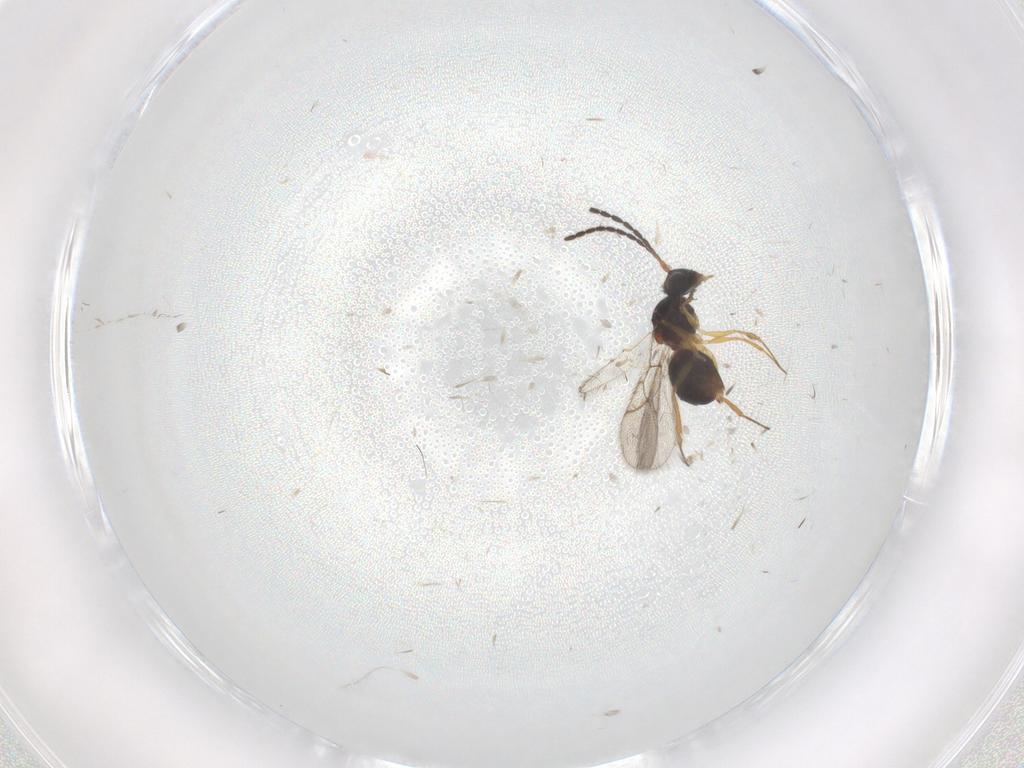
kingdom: Animalia
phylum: Arthropoda
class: Insecta
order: Hymenoptera
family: Figitidae
